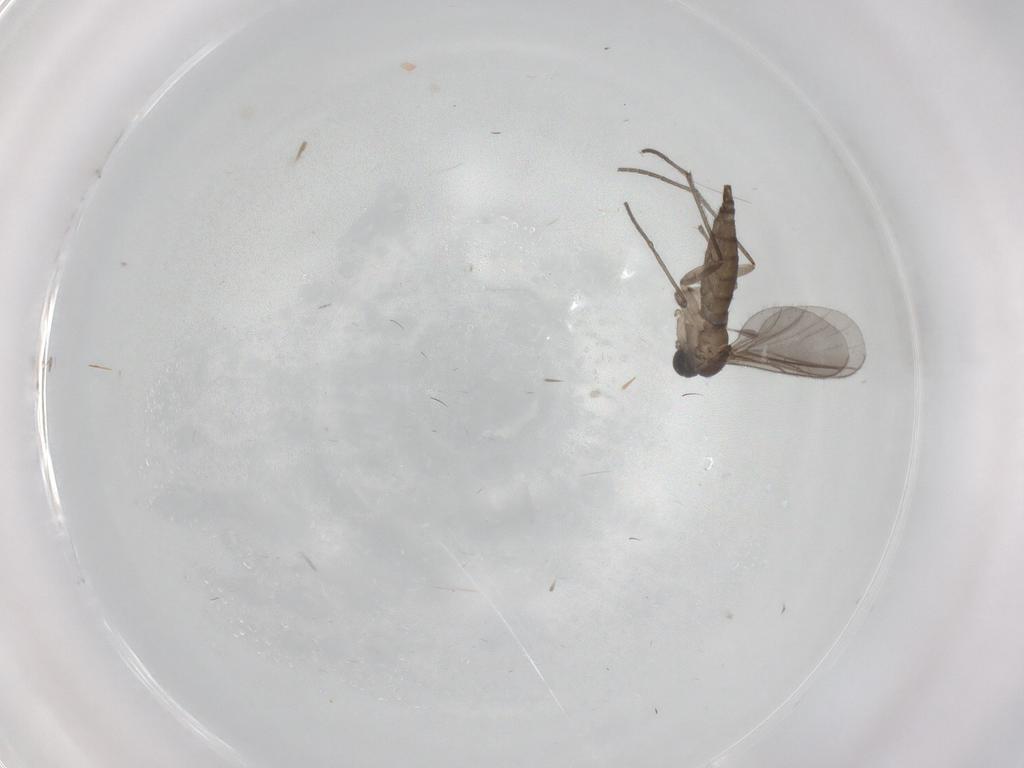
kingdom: Animalia
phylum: Arthropoda
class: Insecta
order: Diptera
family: Sciaridae
